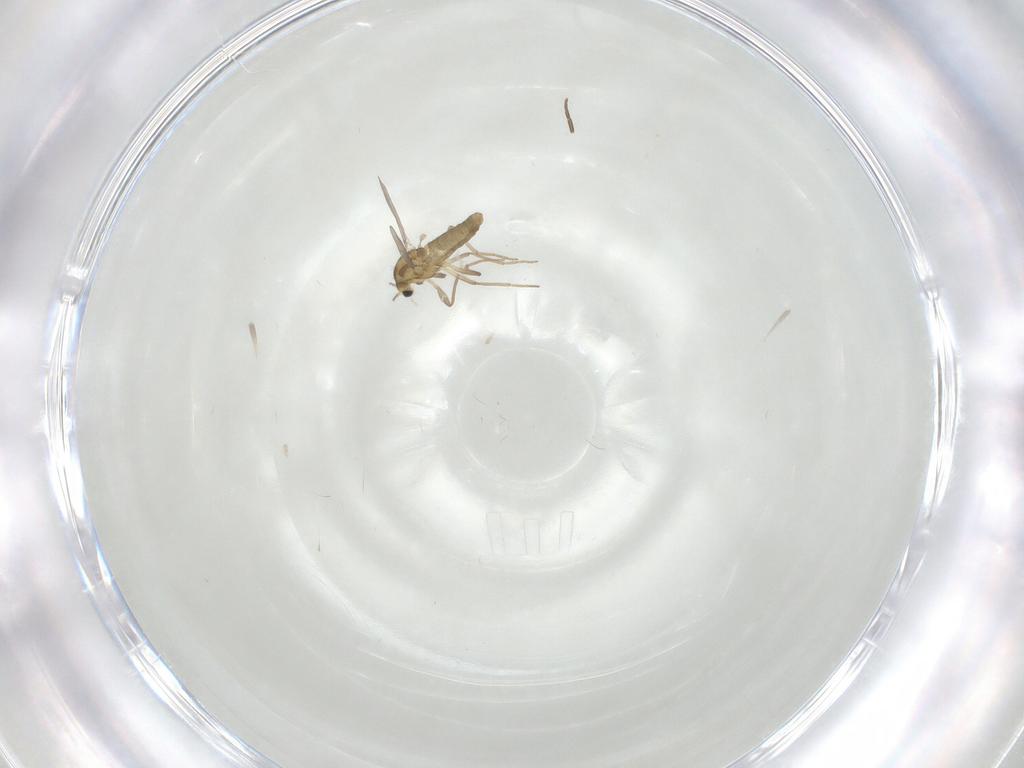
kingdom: Animalia
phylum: Arthropoda
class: Insecta
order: Diptera
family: Chironomidae
